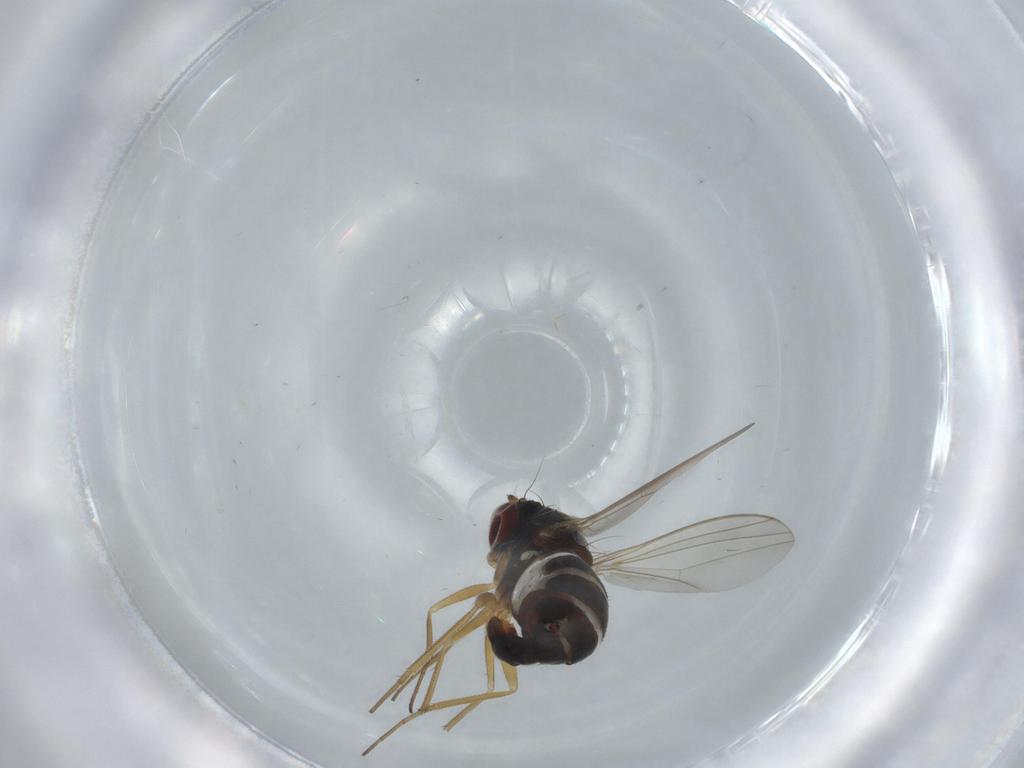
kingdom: Animalia
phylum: Arthropoda
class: Insecta
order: Diptera
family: Dolichopodidae
